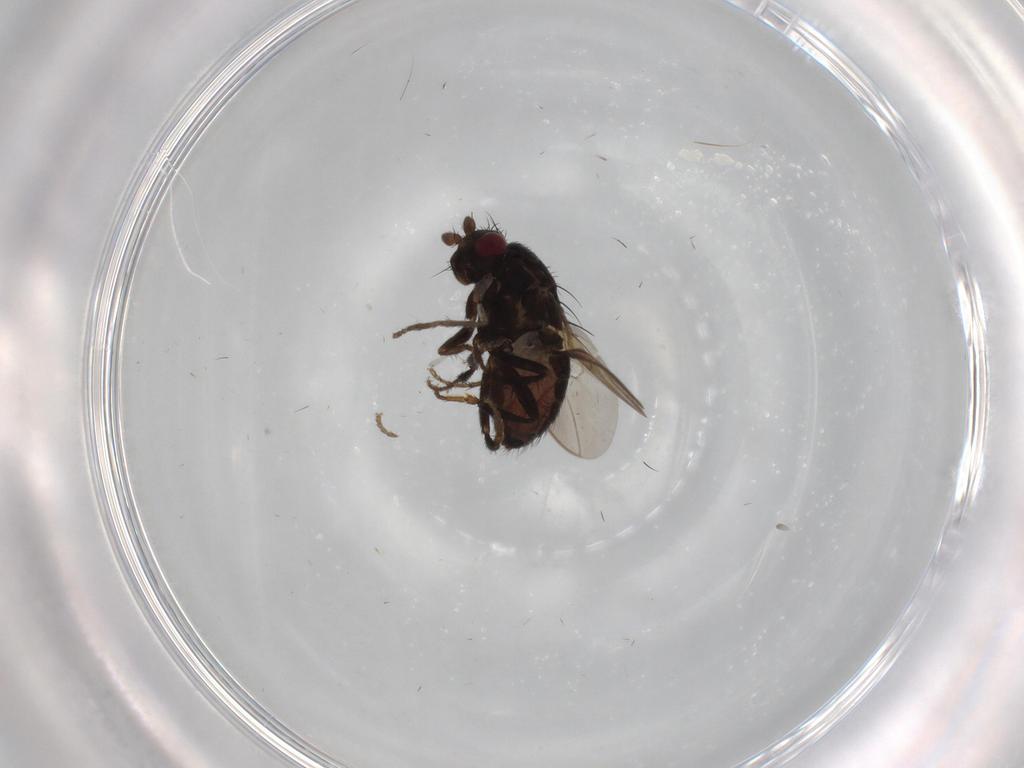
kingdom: Animalia
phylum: Arthropoda
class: Insecta
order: Diptera
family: Sphaeroceridae
